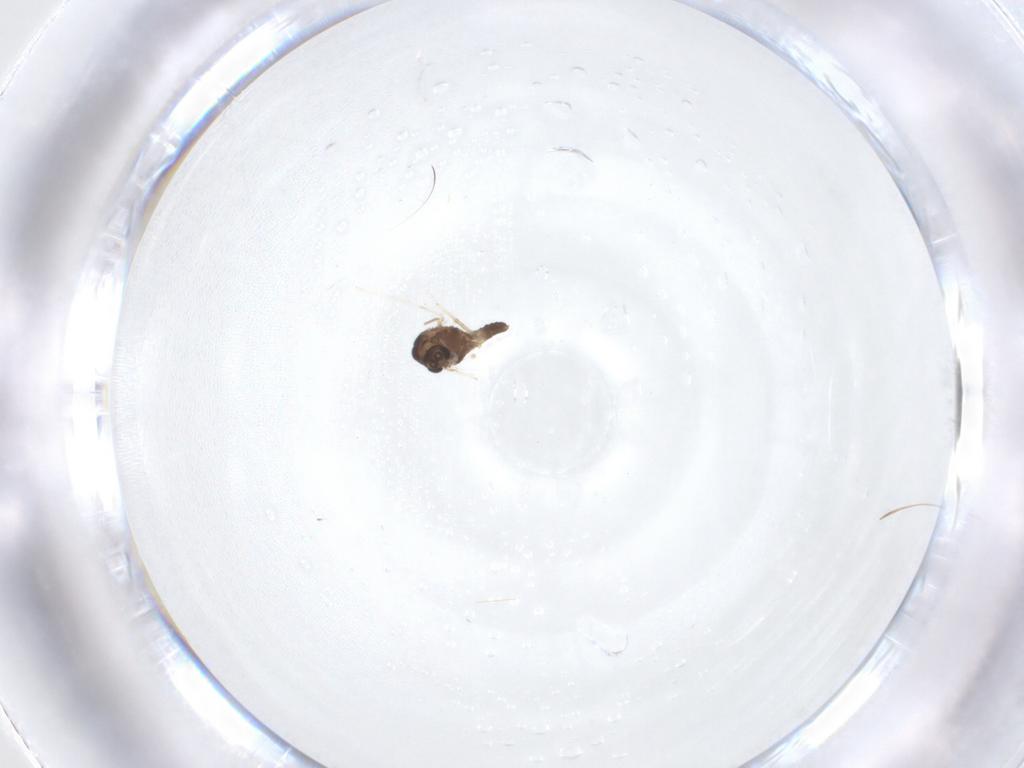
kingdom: Animalia
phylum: Arthropoda
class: Insecta
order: Diptera
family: Chironomidae
